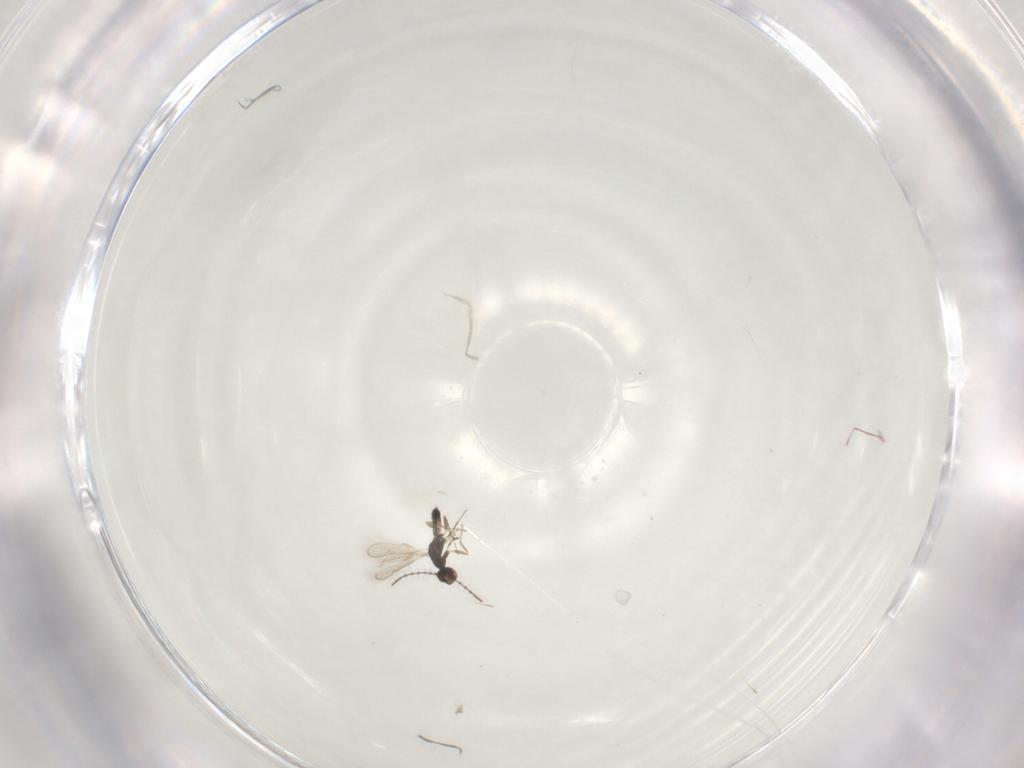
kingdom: Animalia
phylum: Arthropoda
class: Insecta
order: Hymenoptera
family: Pteromalidae
